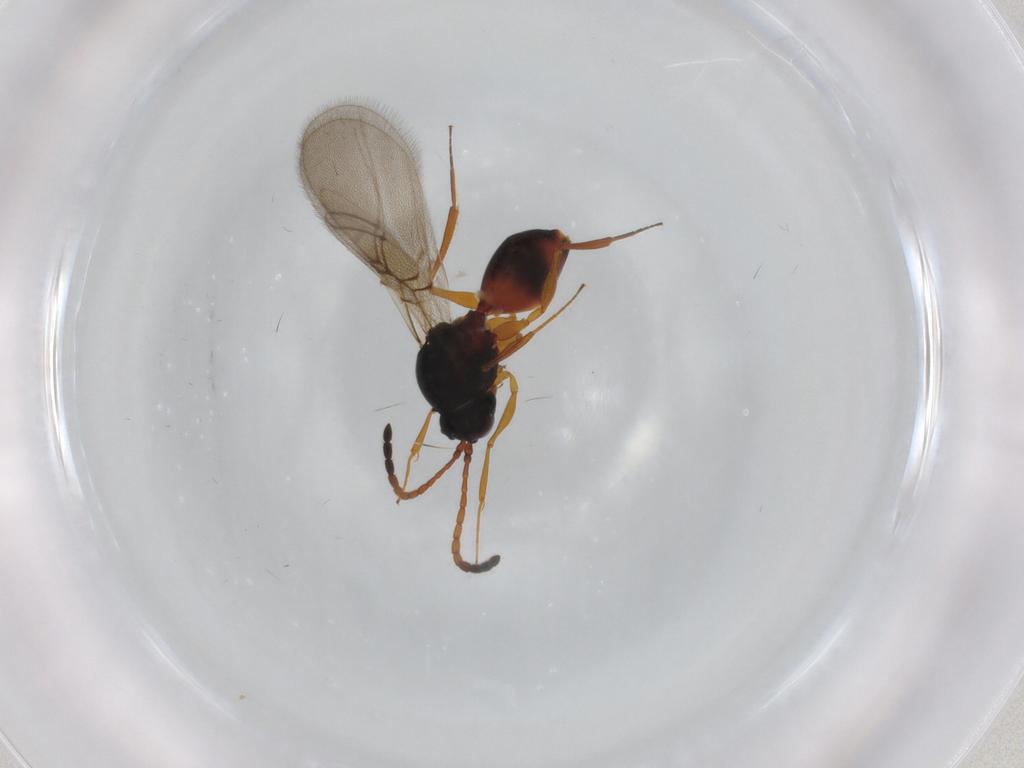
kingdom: Animalia
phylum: Arthropoda
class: Insecta
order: Hymenoptera
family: Figitidae
